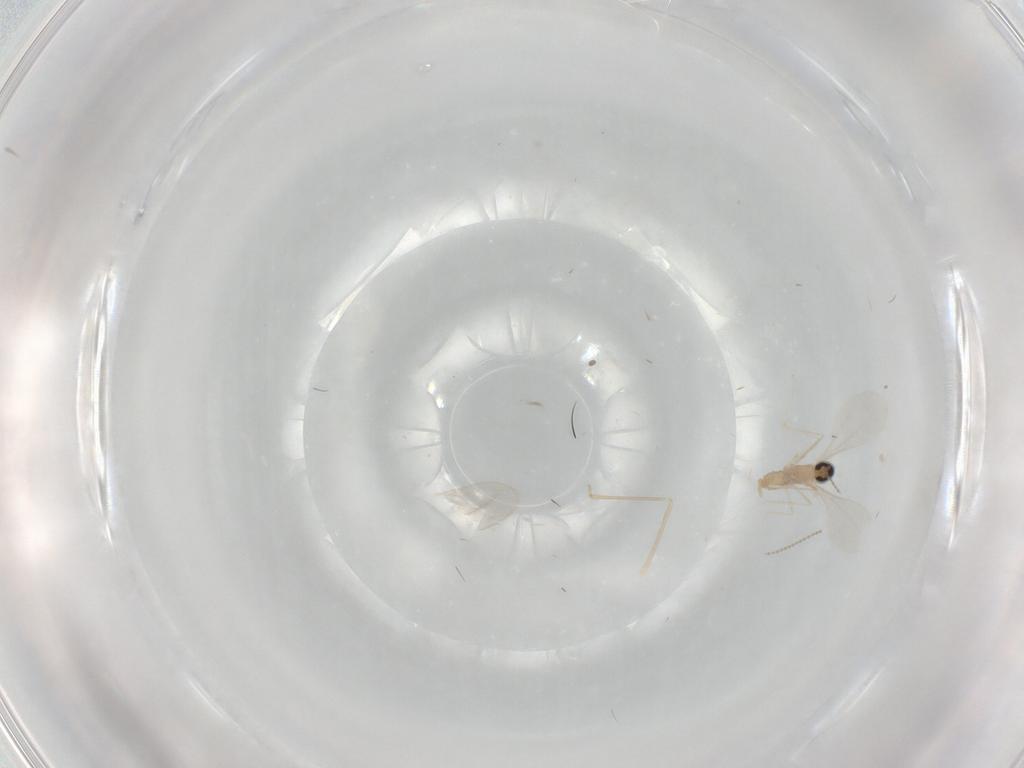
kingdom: Animalia
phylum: Arthropoda
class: Insecta
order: Diptera
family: Cecidomyiidae
